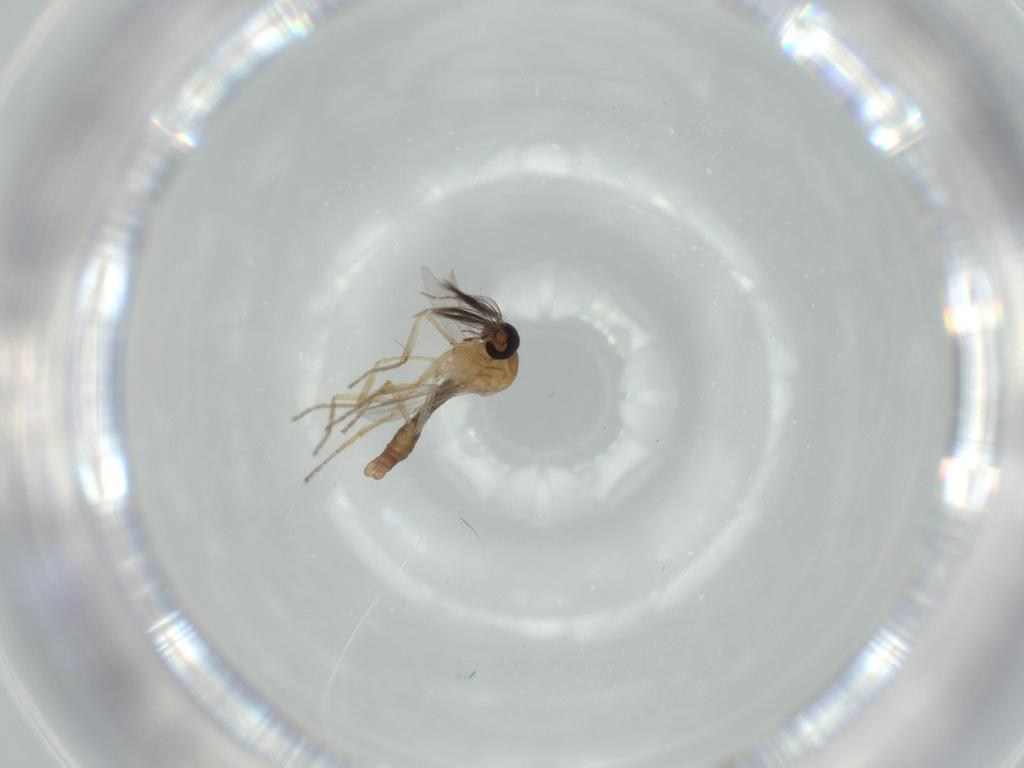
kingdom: Animalia
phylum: Arthropoda
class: Insecta
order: Diptera
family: Ceratopogonidae
